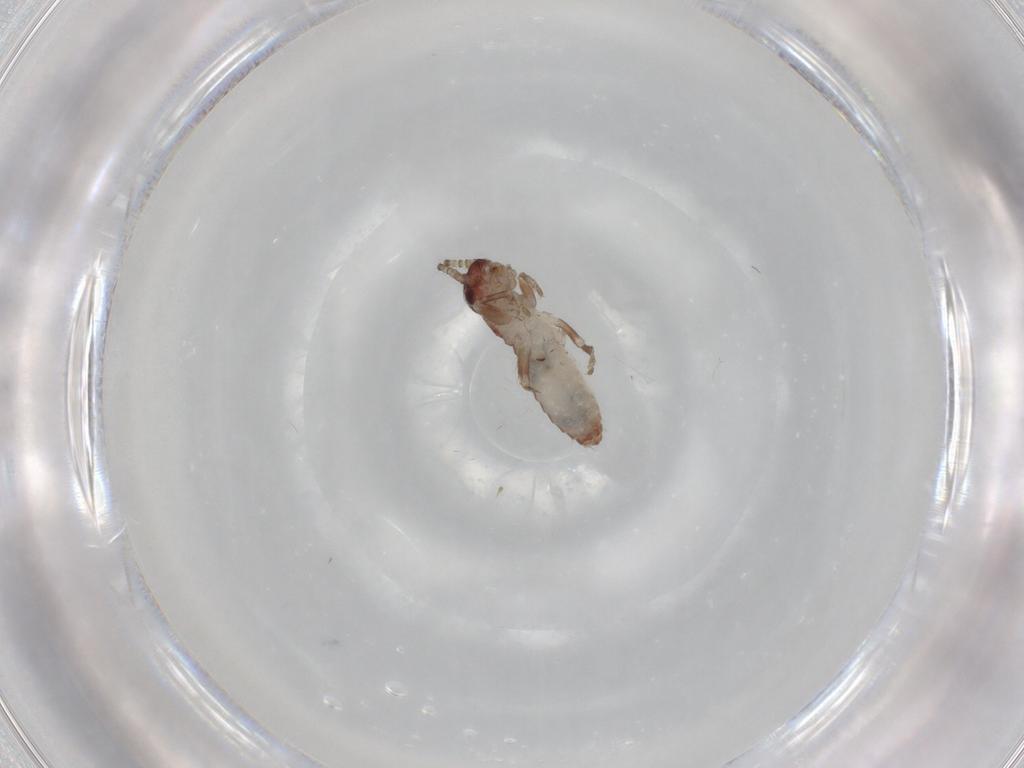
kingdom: Animalia
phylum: Arthropoda
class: Insecta
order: Orthoptera
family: Mogoplistidae
